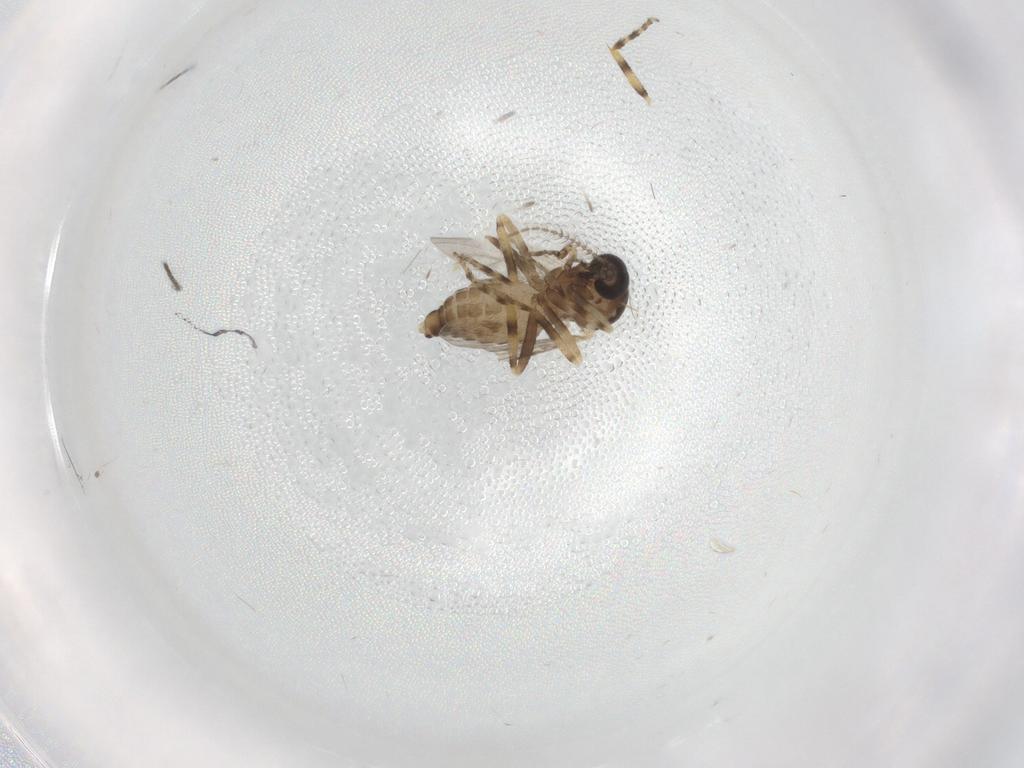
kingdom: Animalia
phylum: Arthropoda
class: Insecta
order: Diptera
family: Ceratopogonidae
